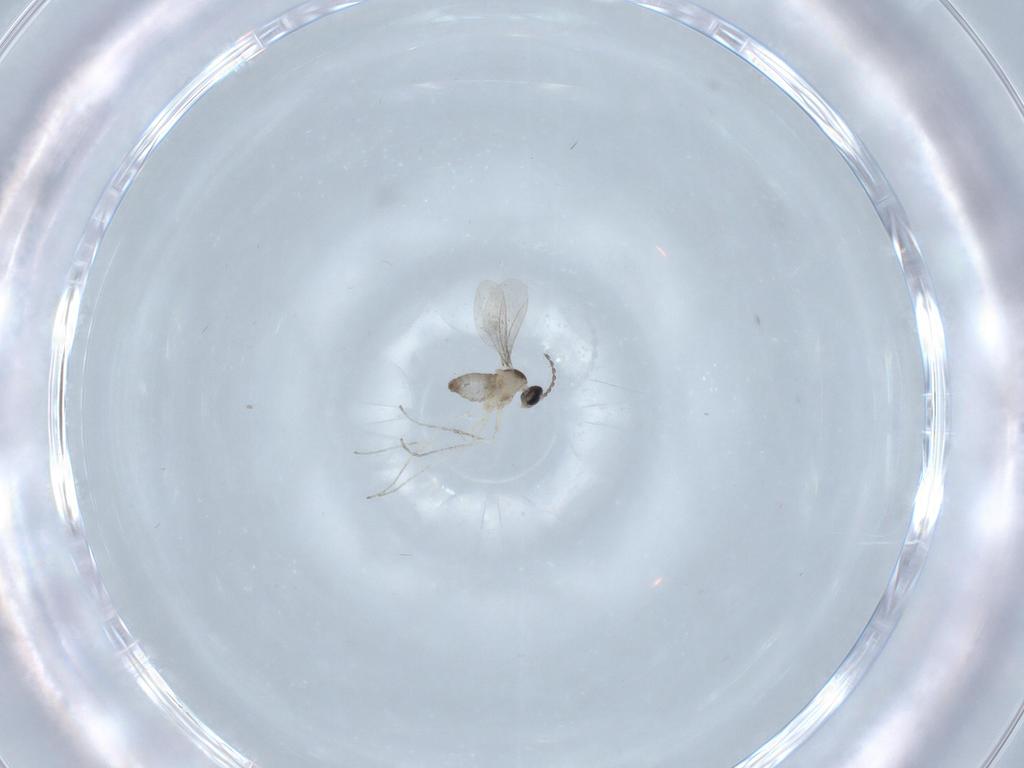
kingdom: Animalia
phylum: Arthropoda
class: Insecta
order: Diptera
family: Cecidomyiidae
